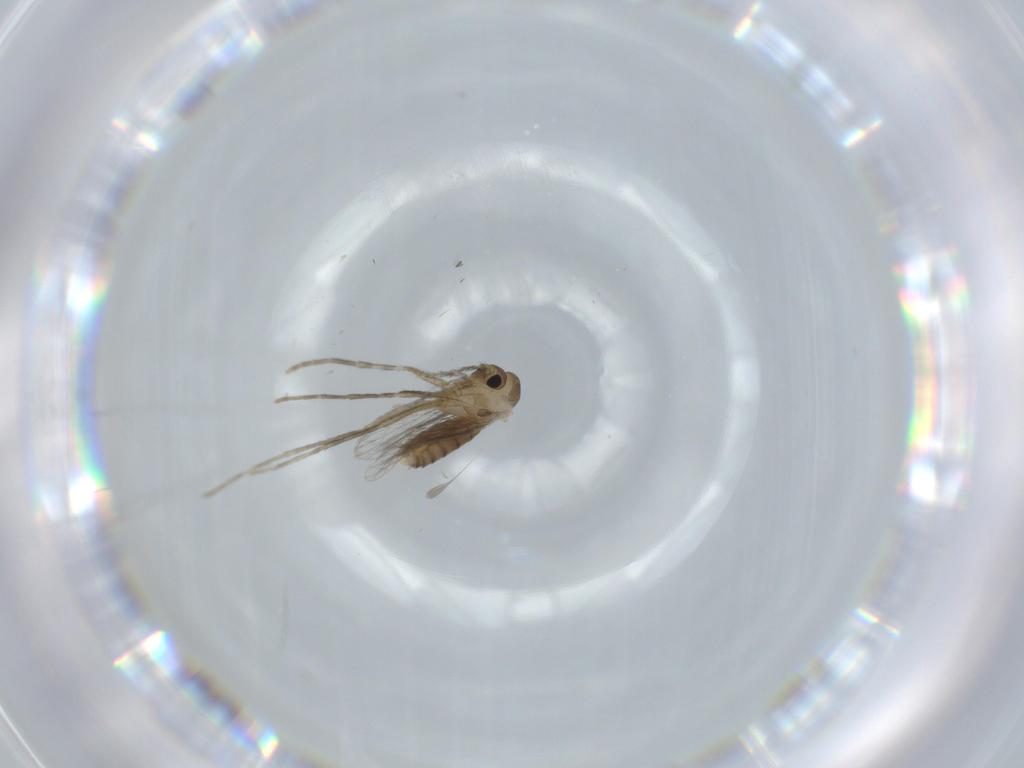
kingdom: Animalia
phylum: Arthropoda
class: Insecta
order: Diptera
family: Psychodidae
